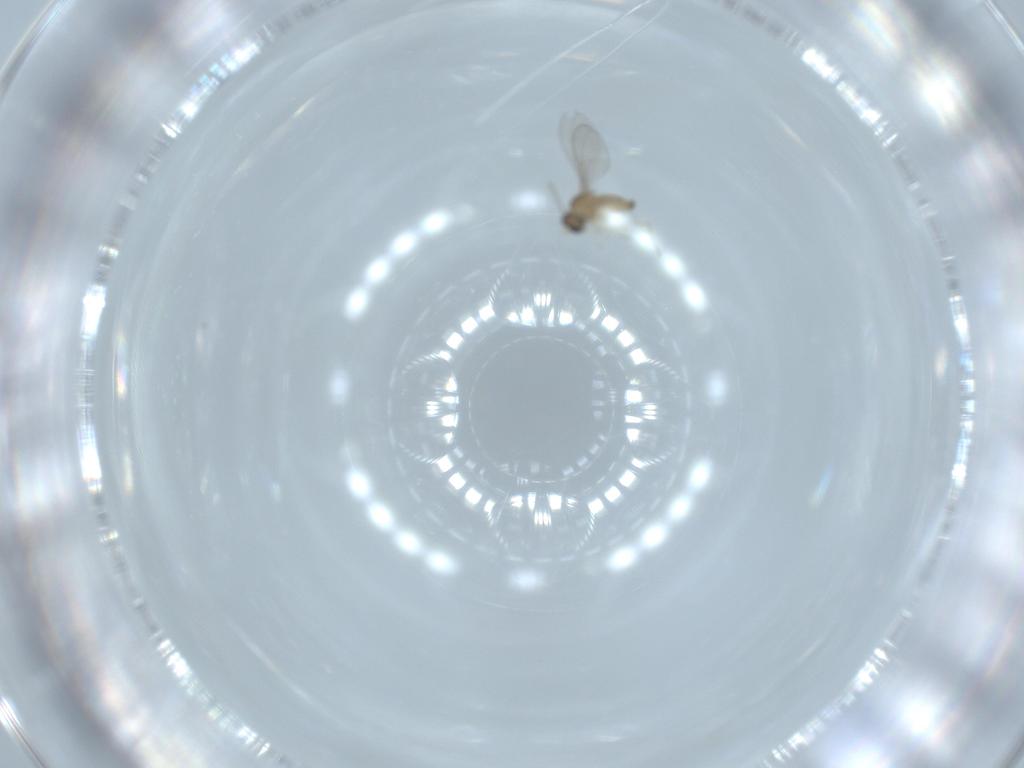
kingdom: Animalia
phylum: Arthropoda
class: Insecta
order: Diptera
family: Cecidomyiidae
